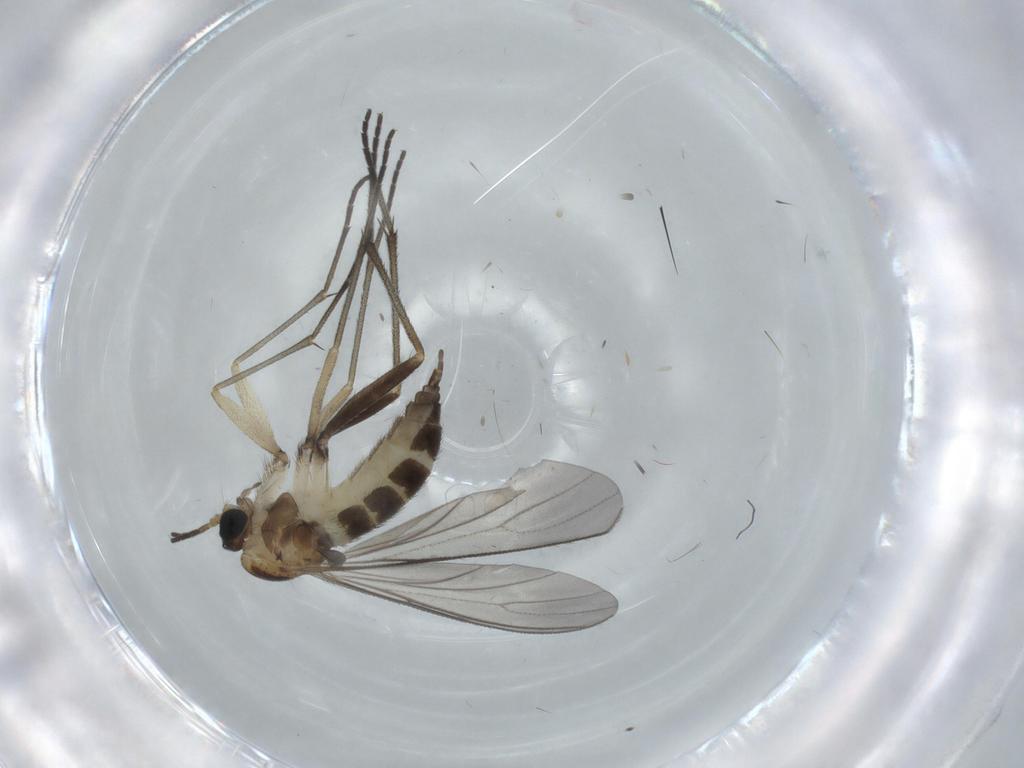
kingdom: Animalia
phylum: Arthropoda
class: Insecta
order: Diptera
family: Sciaridae
